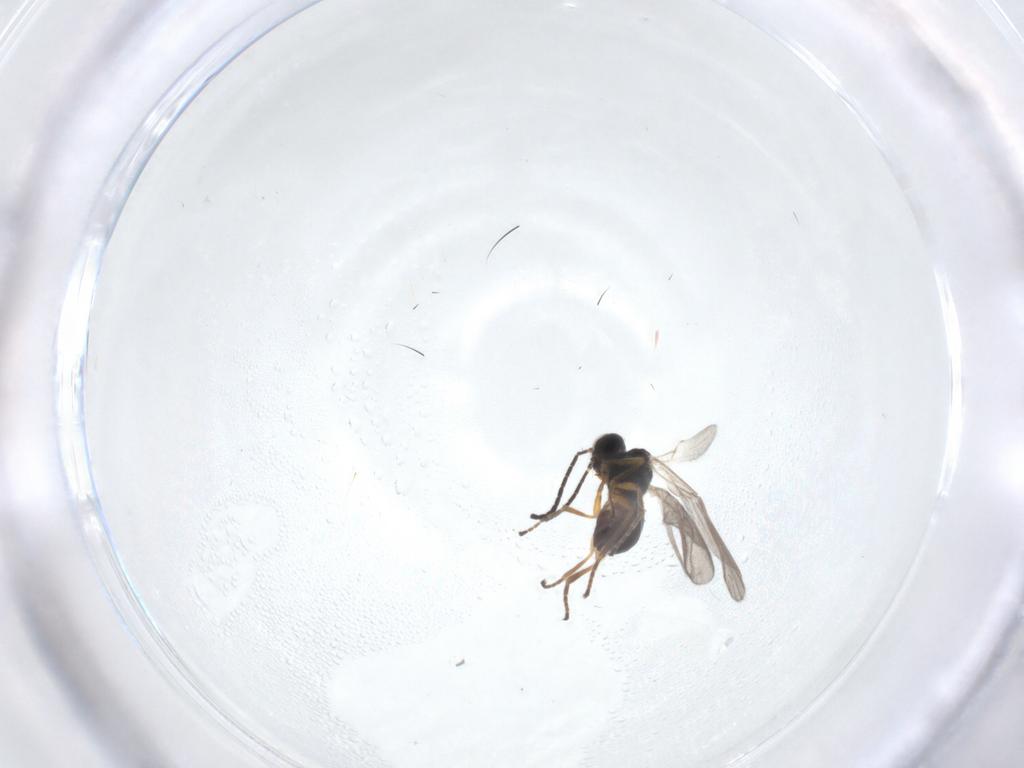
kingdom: Animalia
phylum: Arthropoda
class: Insecta
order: Hymenoptera
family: Braconidae
